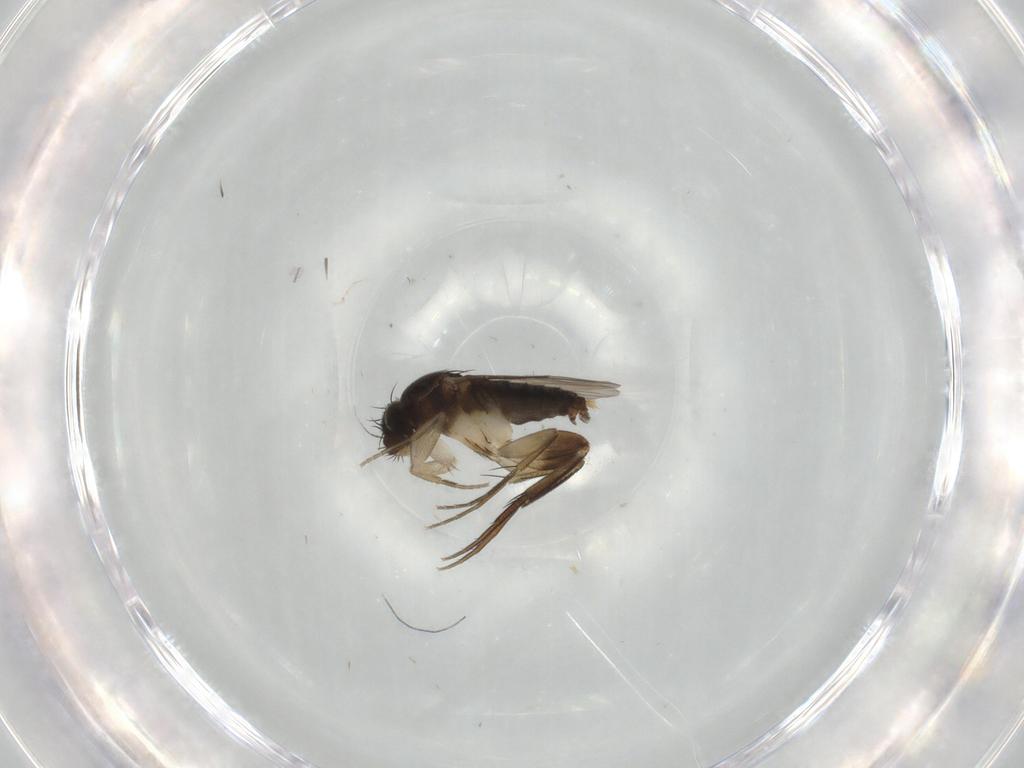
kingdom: Animalia
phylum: Arthropoda
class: Insecta
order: Diptera
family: Phoridae
